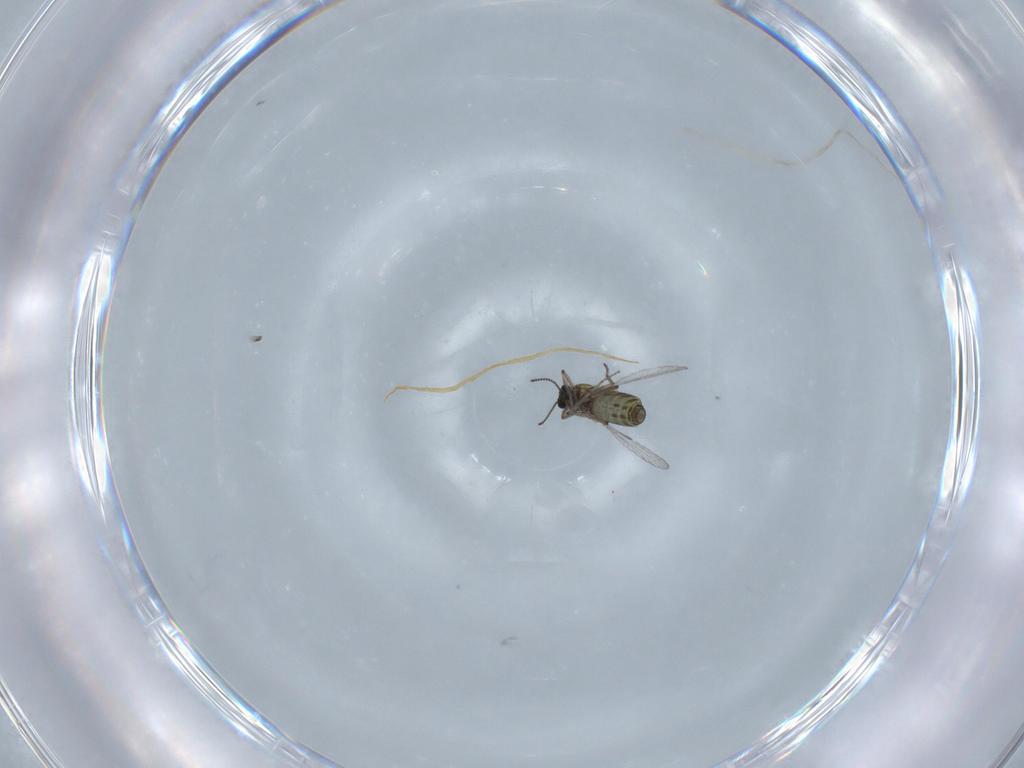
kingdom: Animalia
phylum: Arthropoda
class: Insecta
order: Diptera
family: Ceratopogonidae
